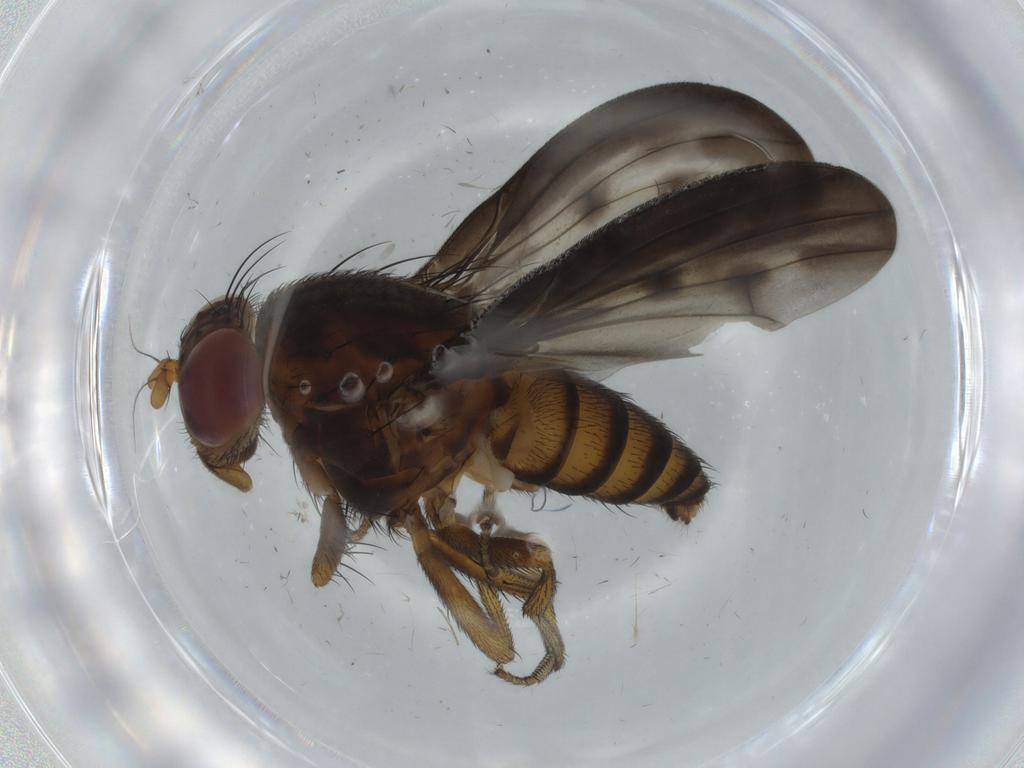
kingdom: Animalia
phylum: Arthropoda
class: Insecta
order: Diptera
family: Cecidomyiidae
